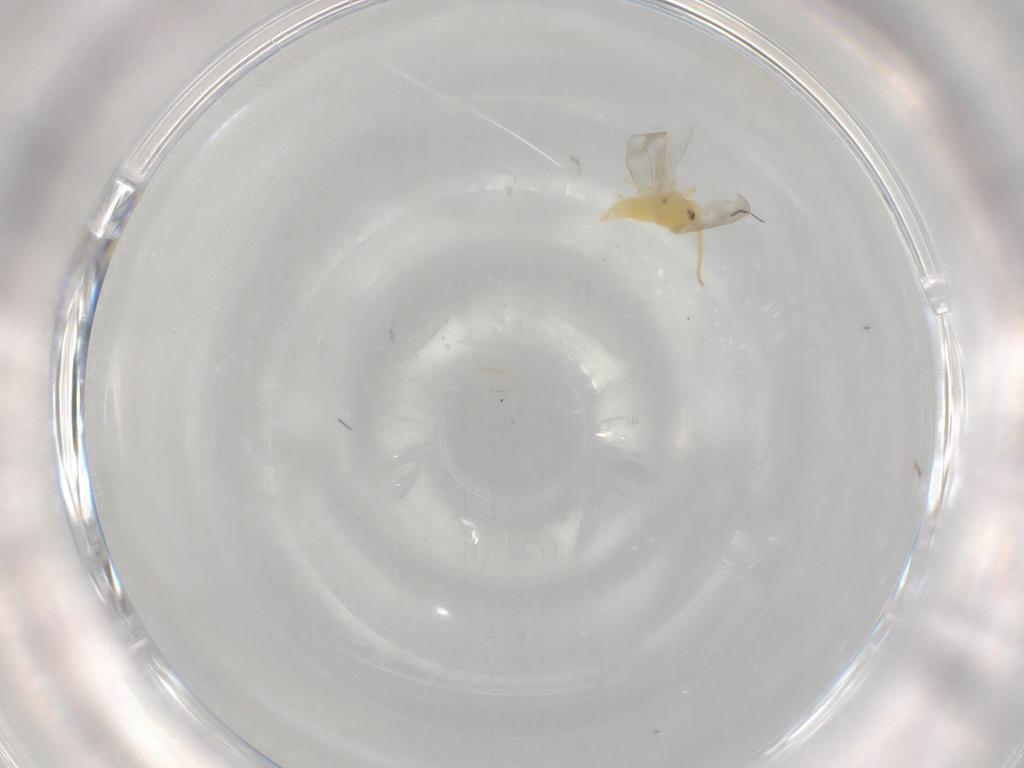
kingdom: Animalia
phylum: Arthropoda
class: Insecta
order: Hemiptera
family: Aleyrodidae
